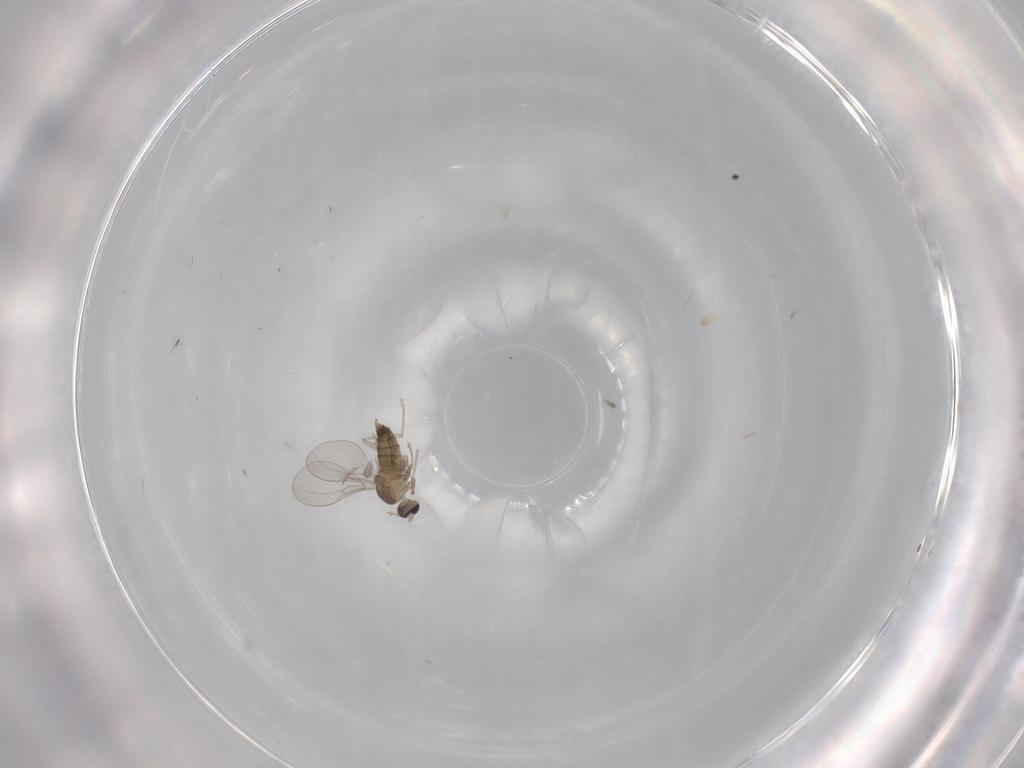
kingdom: Animalia
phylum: Arthropoda
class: Insecta
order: Diptera
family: Cecidomyiidae
